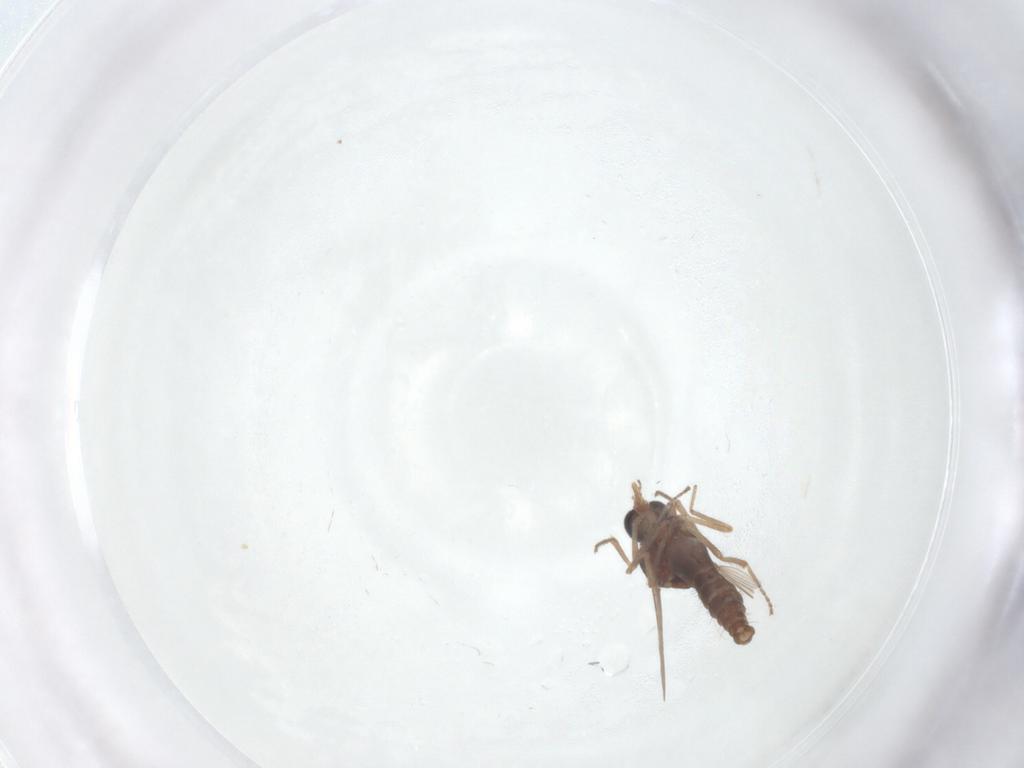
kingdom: Animalia
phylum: Arthropoda
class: Insecta
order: Diptera
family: Ceratopogonidae
